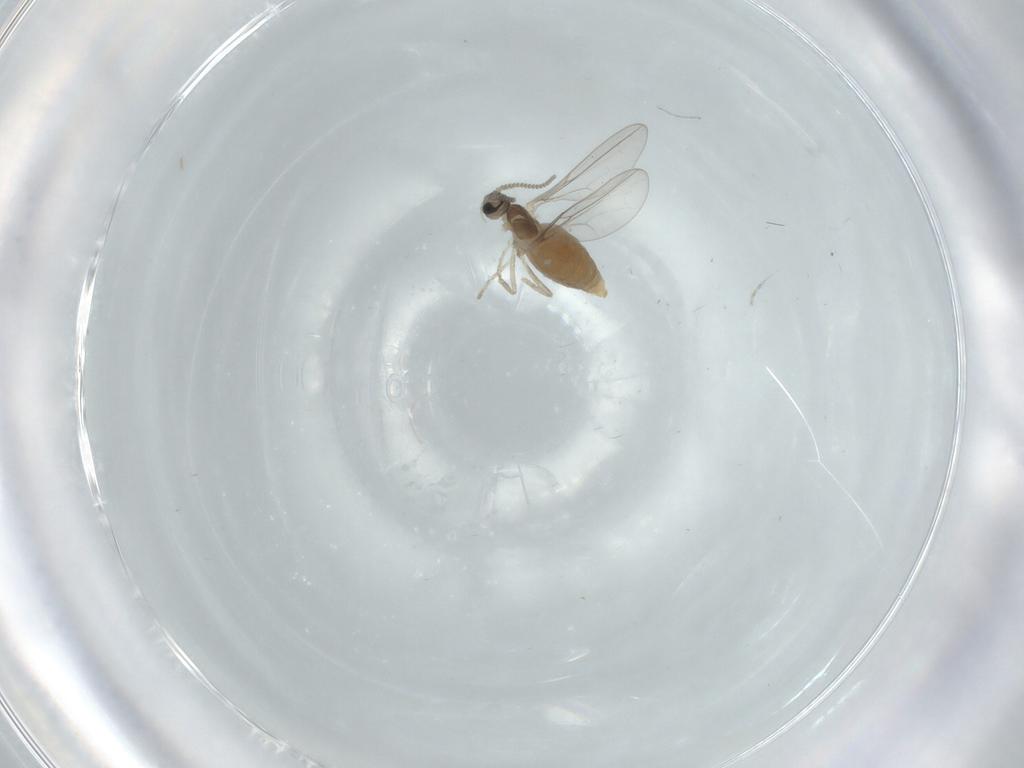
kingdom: Animalia
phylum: Arthropoda
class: Insecta
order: Diptera
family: Cecidomyiidae
